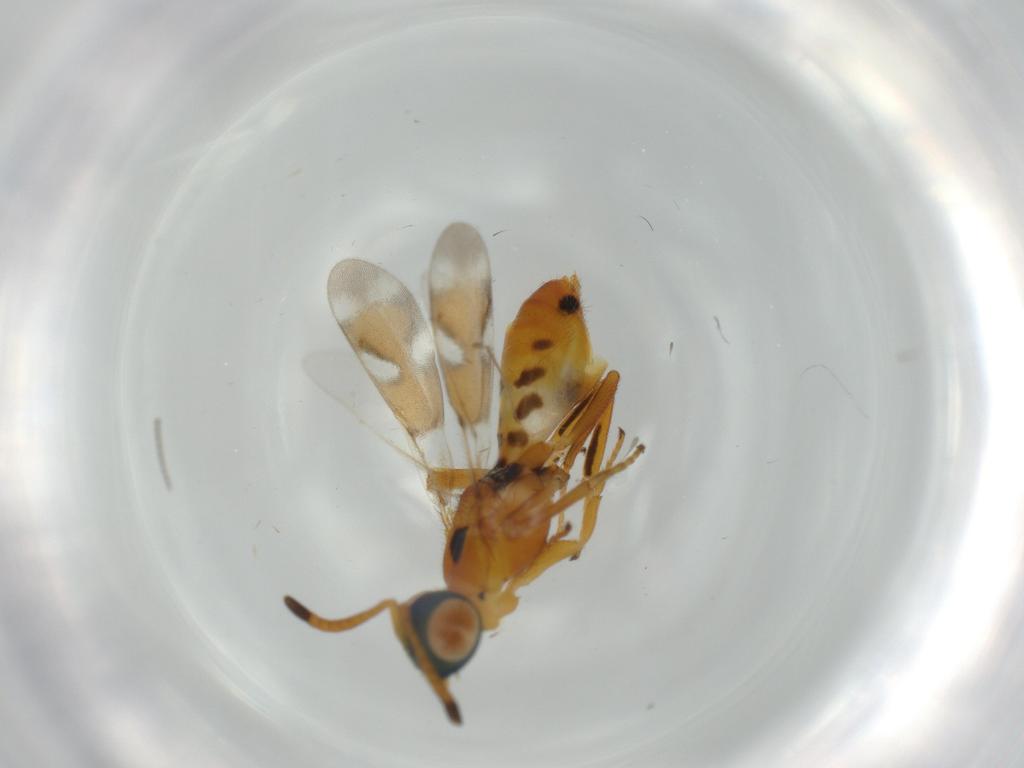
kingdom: Animalia
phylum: Arthropoda
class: Insecta
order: Hymenoptera
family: Eupelmidae
